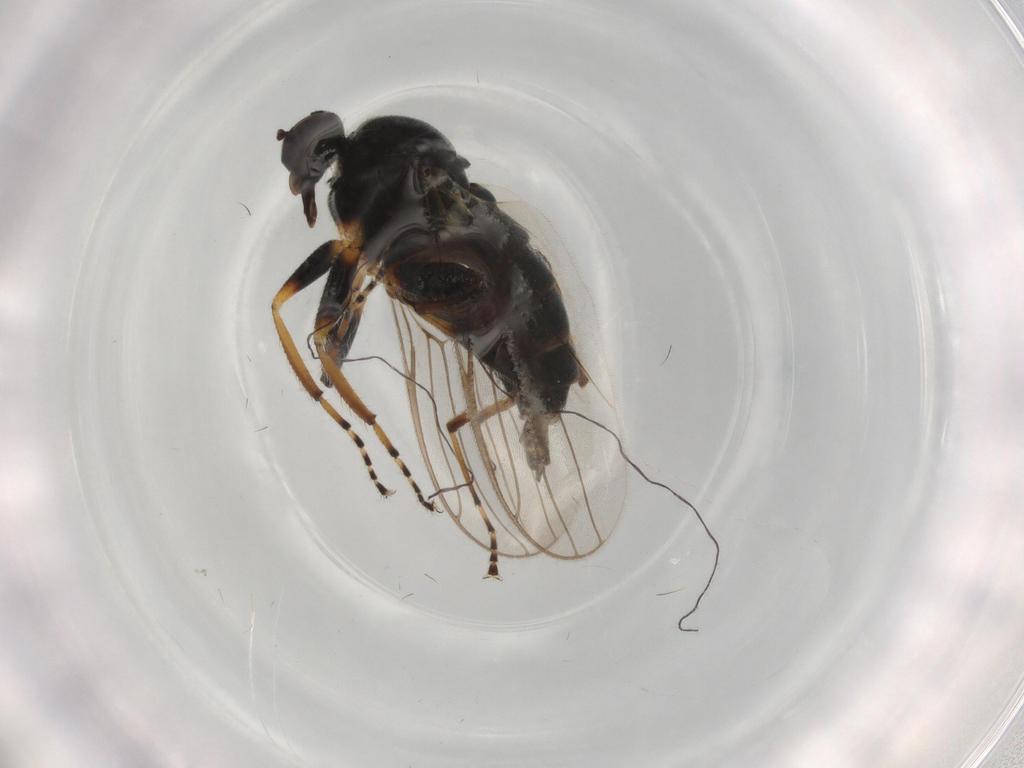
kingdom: Animalia
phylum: Arthropoda
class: Insecta
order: Diptera
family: Hybotidae
